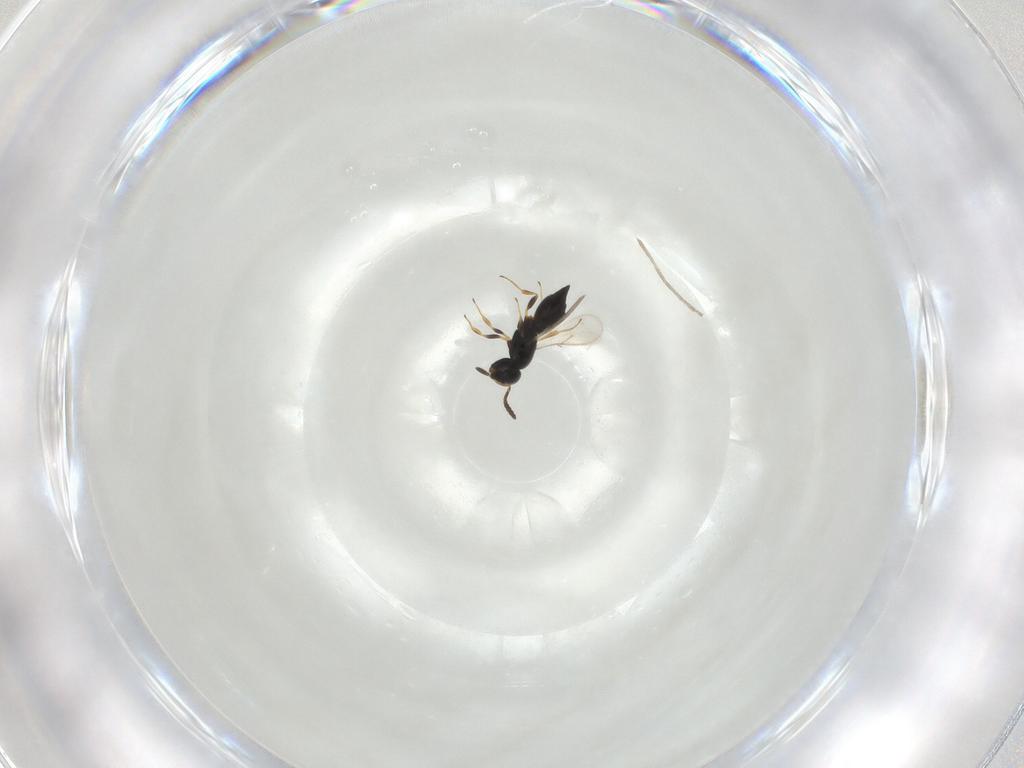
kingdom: Animalia
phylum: Arthropoda
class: Insecta
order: Hymenoptera
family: Scelionidae
